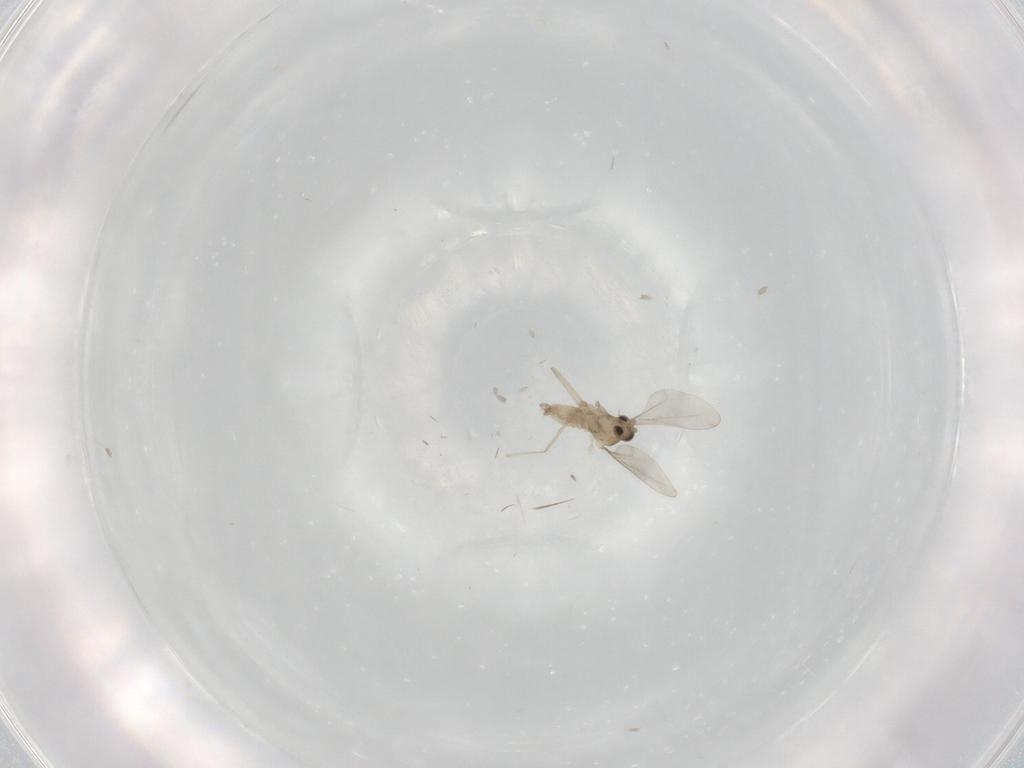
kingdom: Animalia
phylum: Arthropoda
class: Insecta
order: Diptera
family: Cecidomyiidae
